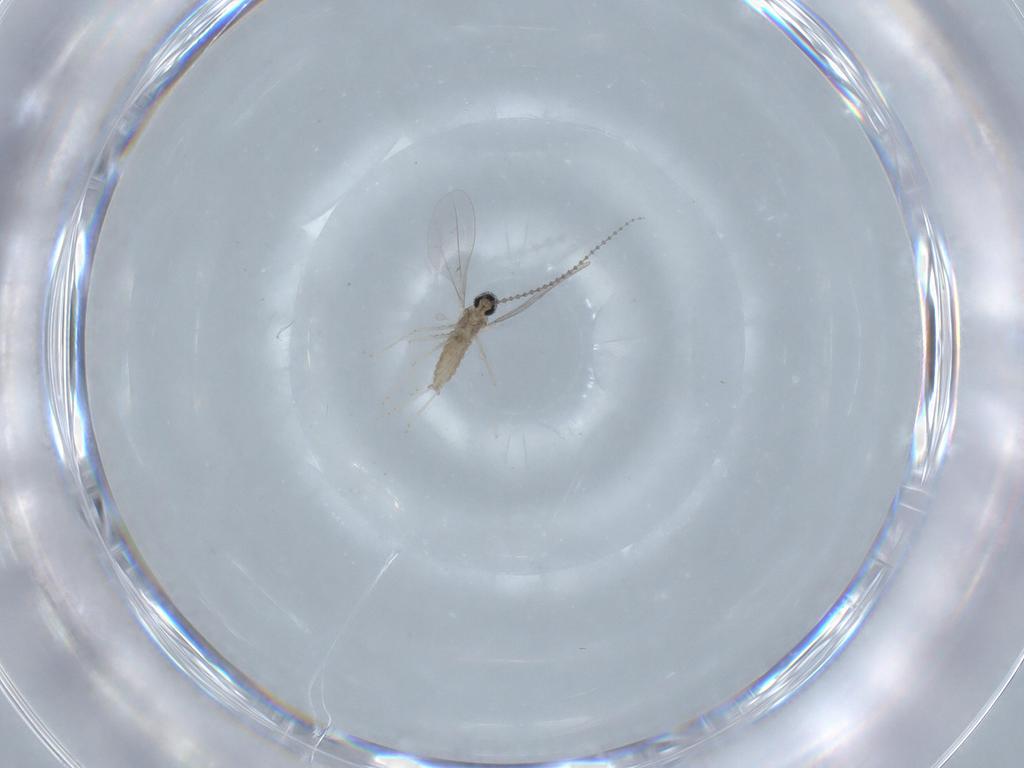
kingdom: Animalia
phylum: Arthropoda
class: Insecta
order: Diptera
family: Cecidomyiidae
